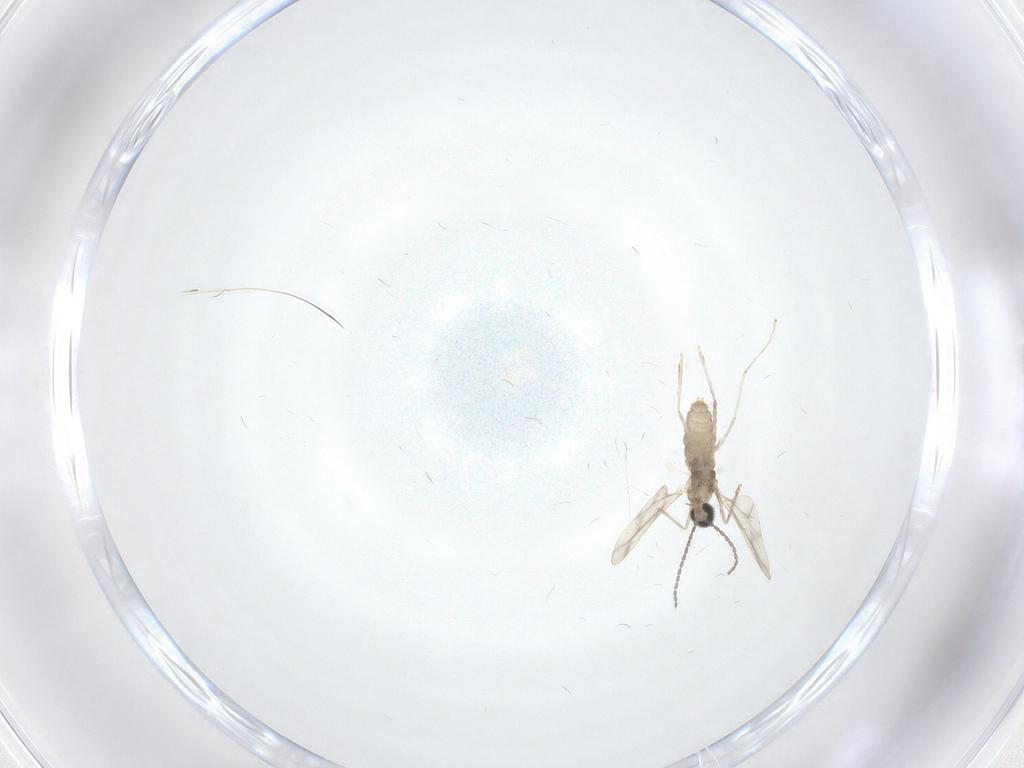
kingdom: Animalia
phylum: Arthropoda
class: Insecta
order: Diptera
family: Cecidomyiidae
